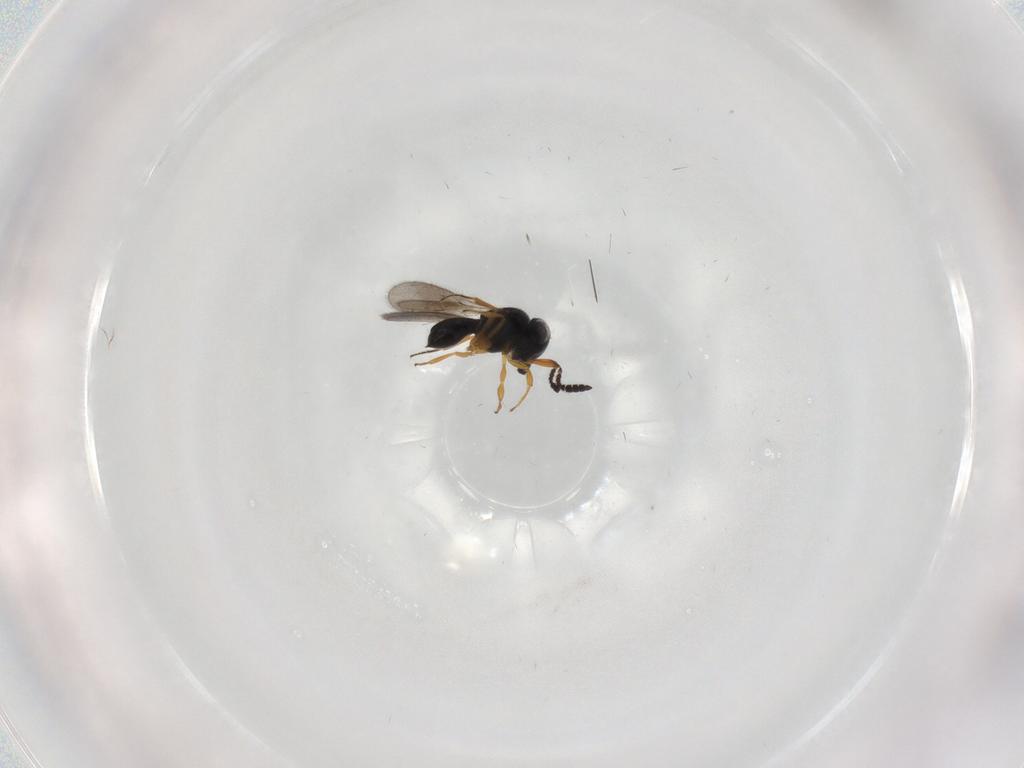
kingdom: Animalia
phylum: Arthropoda
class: Insecta
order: Hymenoptera
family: Scelionidae
